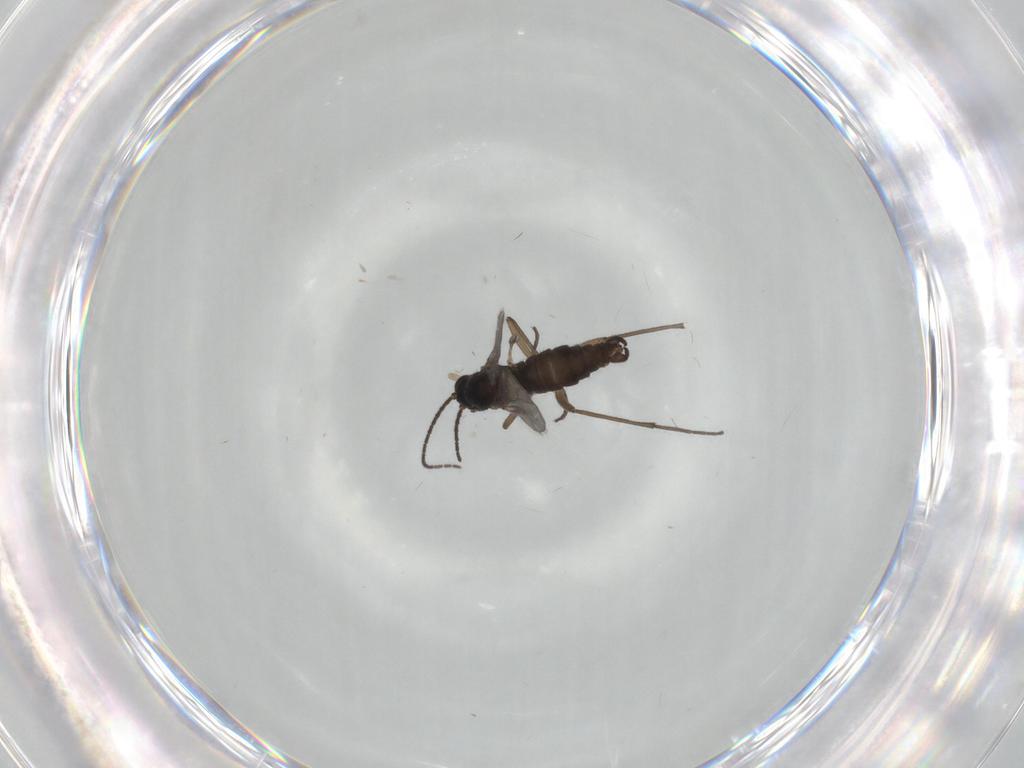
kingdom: Animalia
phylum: Arthropoda
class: Insecta
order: Diptera
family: Sciaridae
